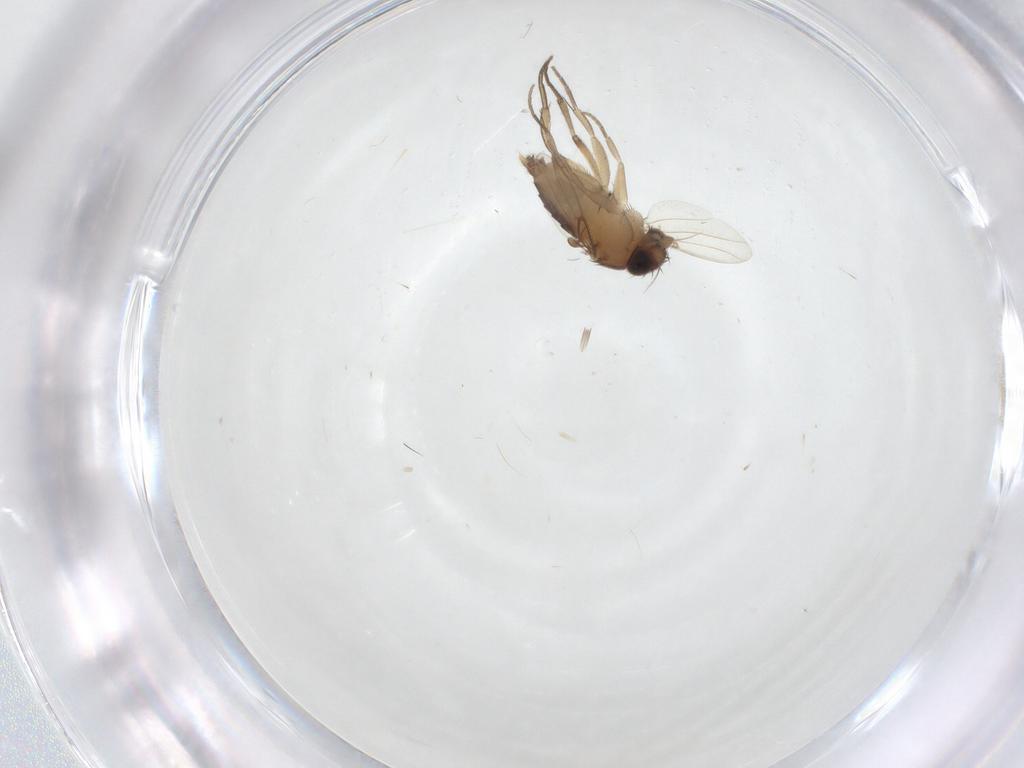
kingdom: Animalia
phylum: Arthropoda
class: Insecta
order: Diptera
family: Phoridae
